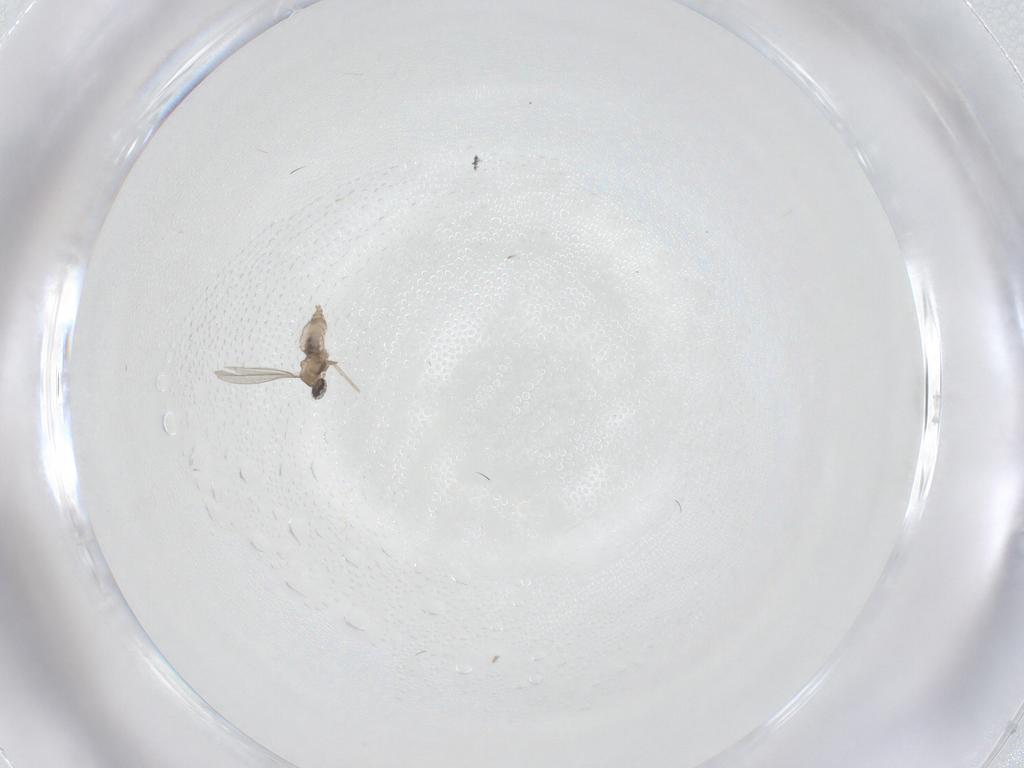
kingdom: Animalia
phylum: Arthropoda
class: Insecta
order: Diptera
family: Cecidomyiidae
